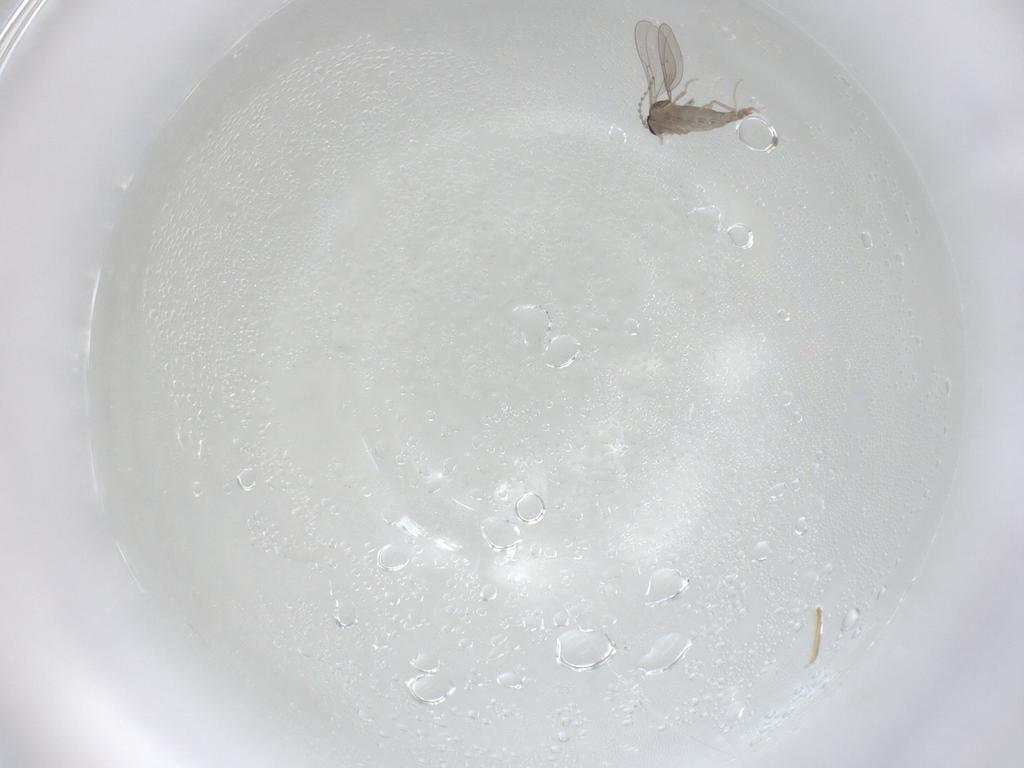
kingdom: Animalia
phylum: Arthropoda
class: Insecta
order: Diptera
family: Cecidomyiidae
